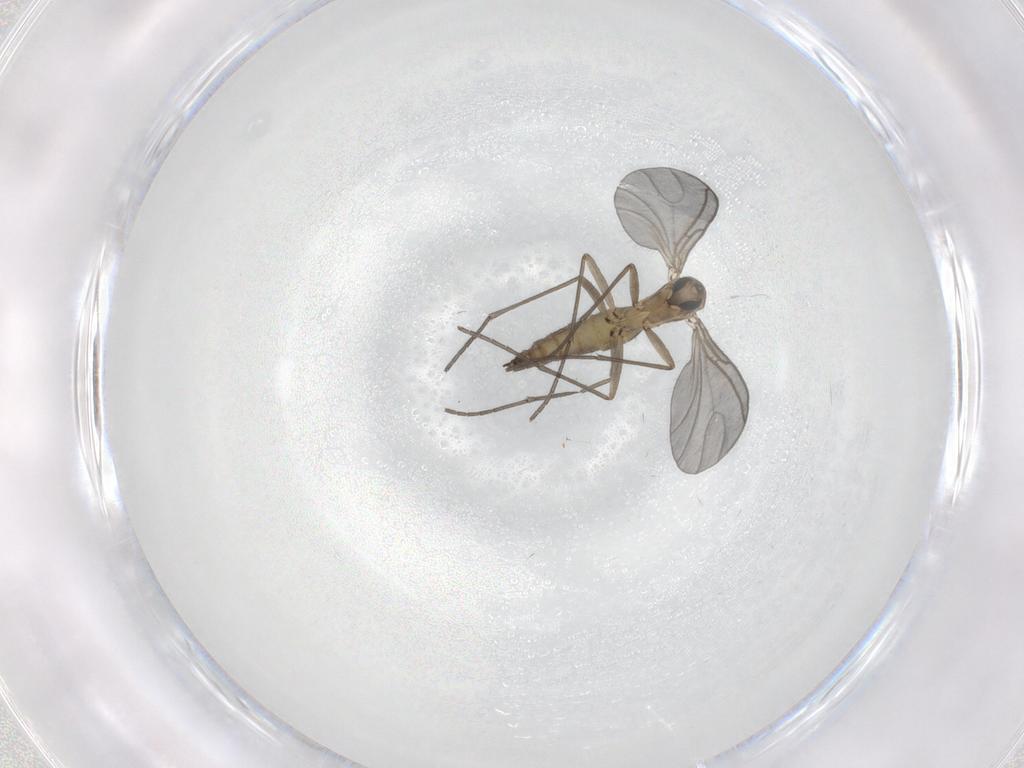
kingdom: Animalia
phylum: Arthropoda
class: Insecta
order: Diptera
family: Sciaridae
